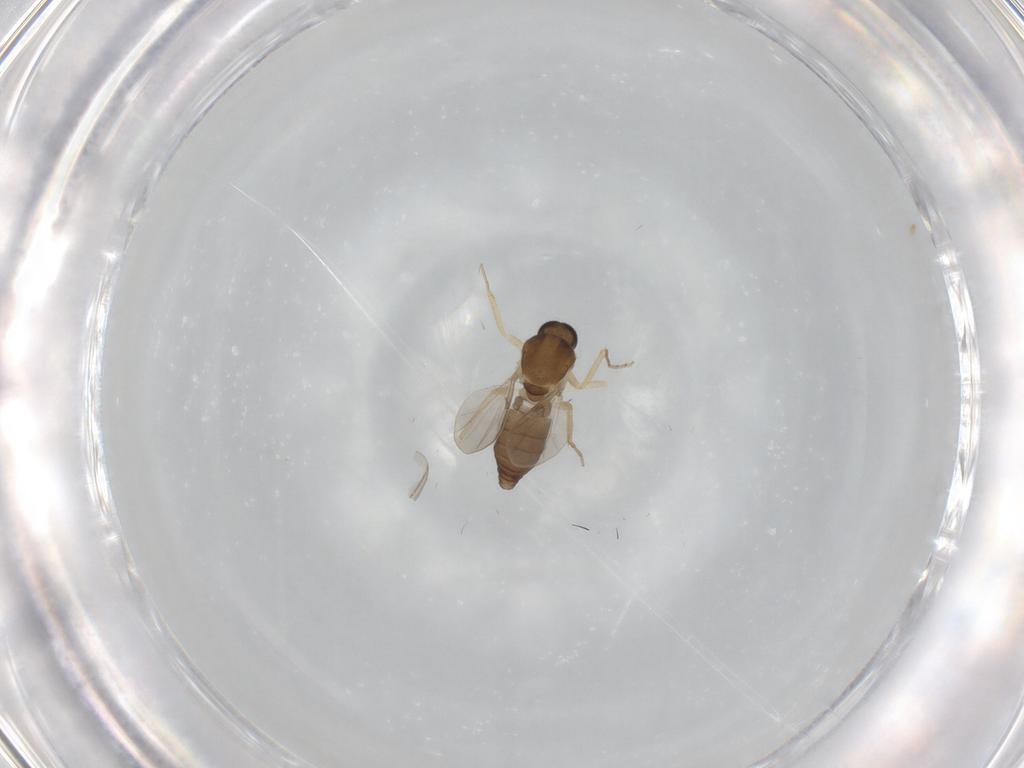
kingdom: Animalia
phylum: Arthropoda
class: Insecta
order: Diptera
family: Ceratopogonidae
